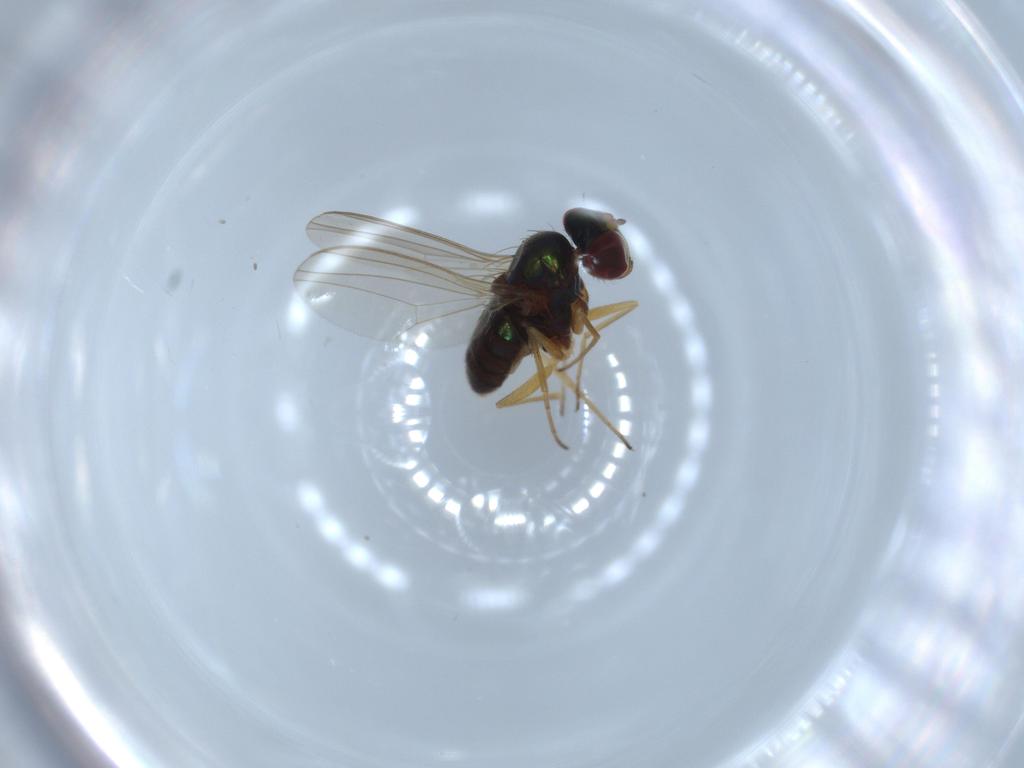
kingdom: Animalia
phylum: Arthropoda
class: Insecta
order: Diptera
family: Dolichopodidae
